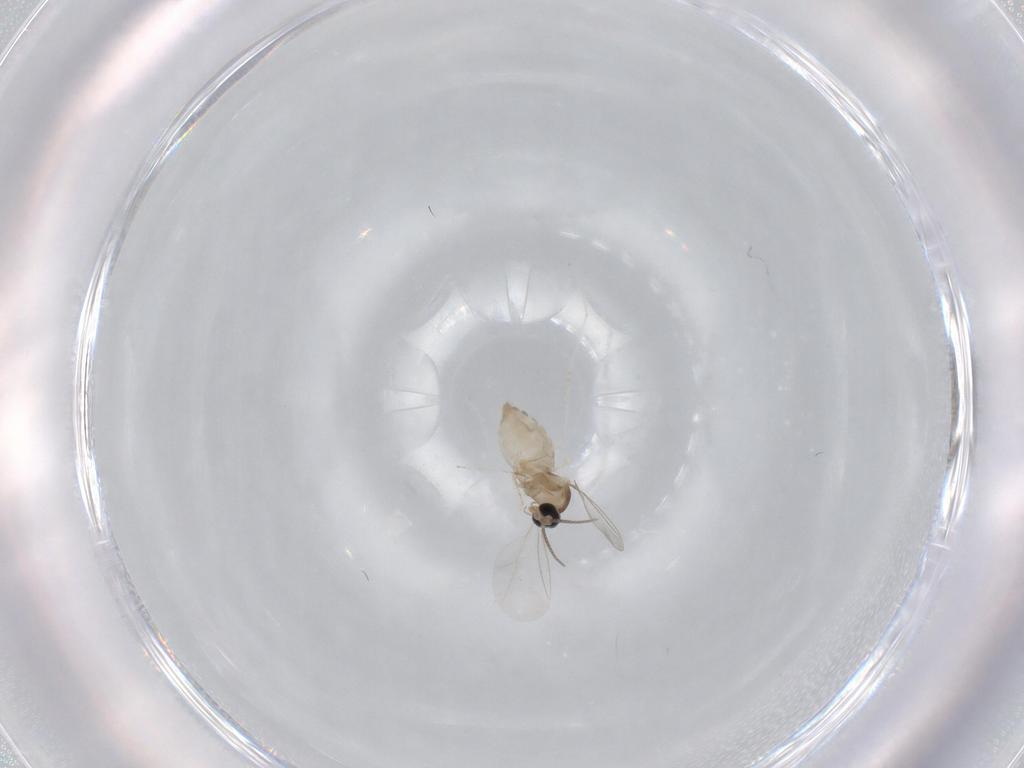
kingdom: Animalia
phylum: Arthropoda
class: Insecta
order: Diptera
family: Cecidomyiidae
